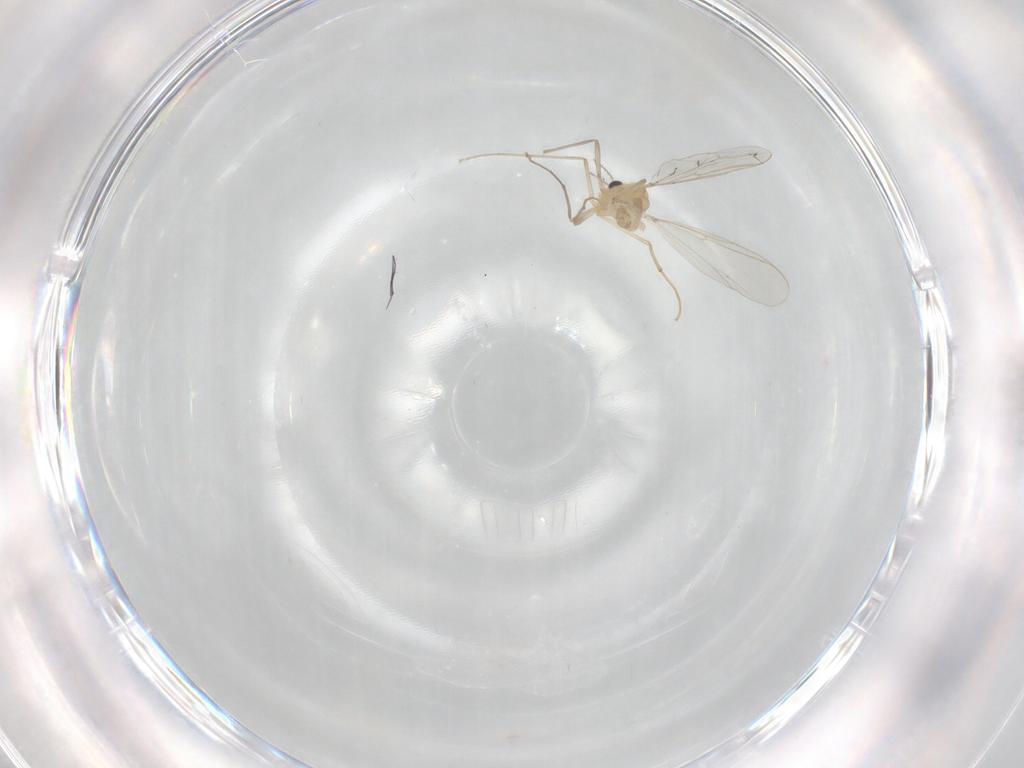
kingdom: Animalia
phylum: Arthropoda
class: Insecta
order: Diptera
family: Chironomidae
